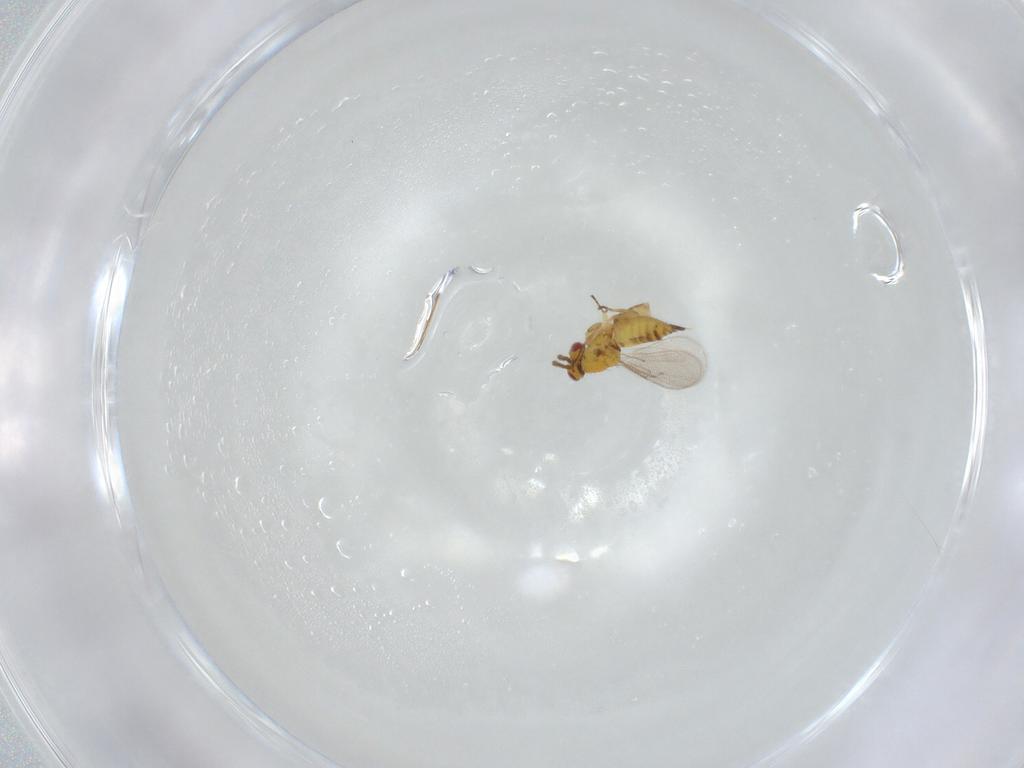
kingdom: Animalia
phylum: Arthropoda
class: Insecta
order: Hymenoptera
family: Eulophidae
